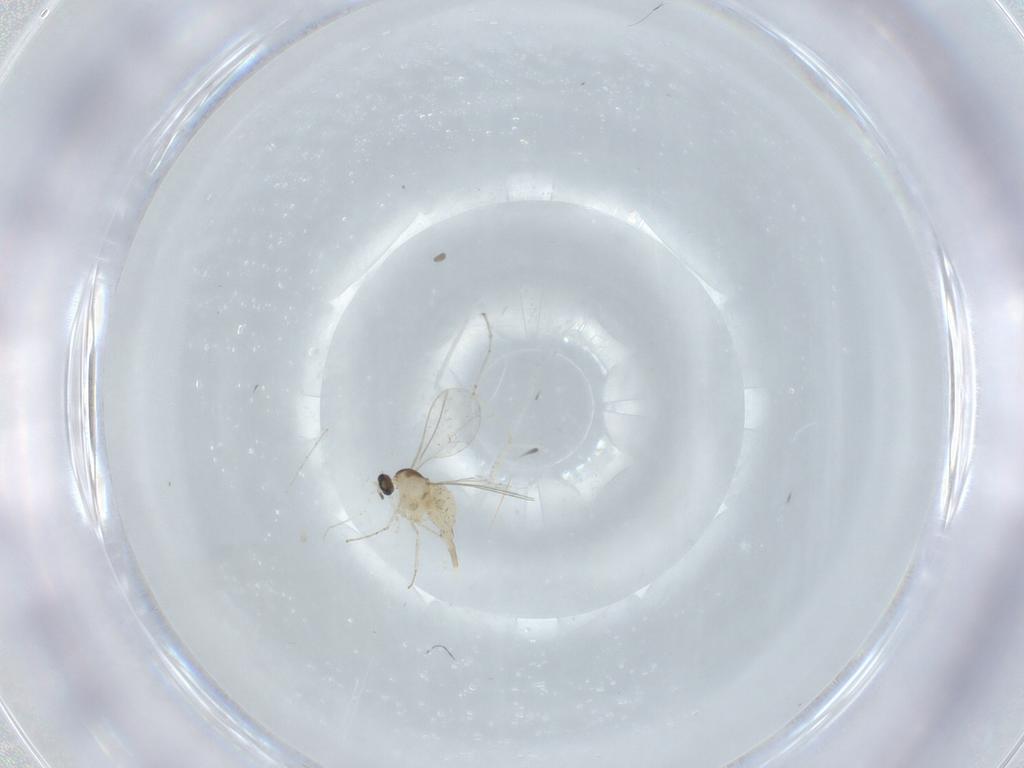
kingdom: Animalia
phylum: Arthropoda
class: Insecta
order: Diptera
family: Cecidomyiidae
